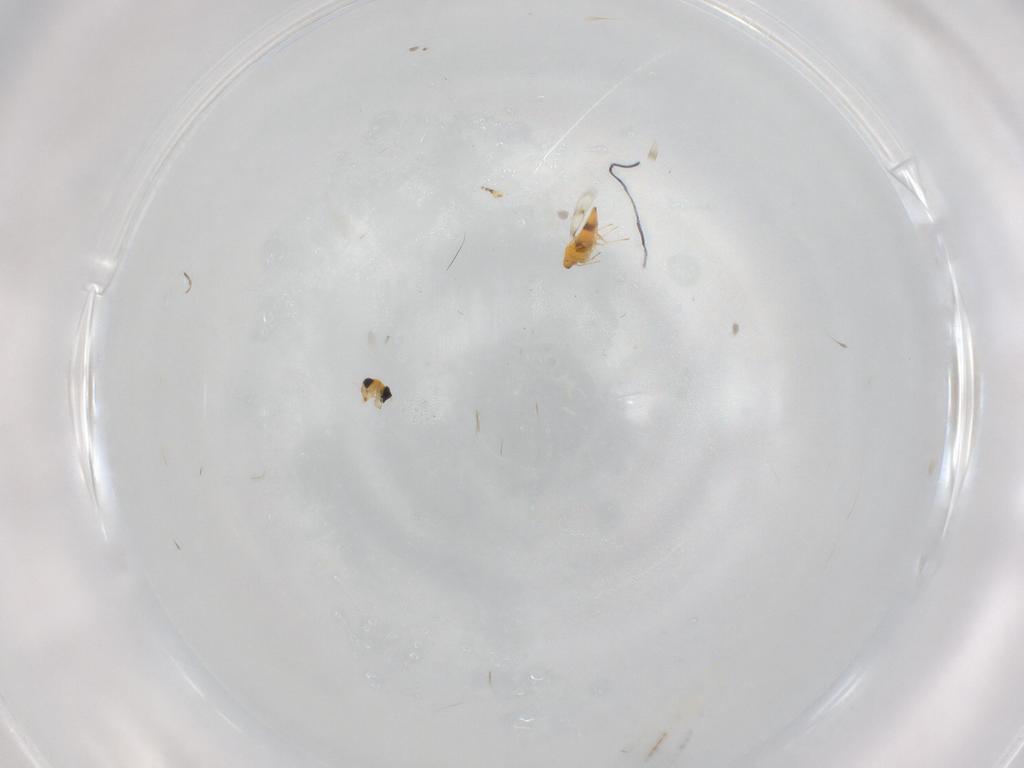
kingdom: Animalia
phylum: Arthropoda
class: Insecta
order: Hymenoptera
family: Trichogrammatidae
